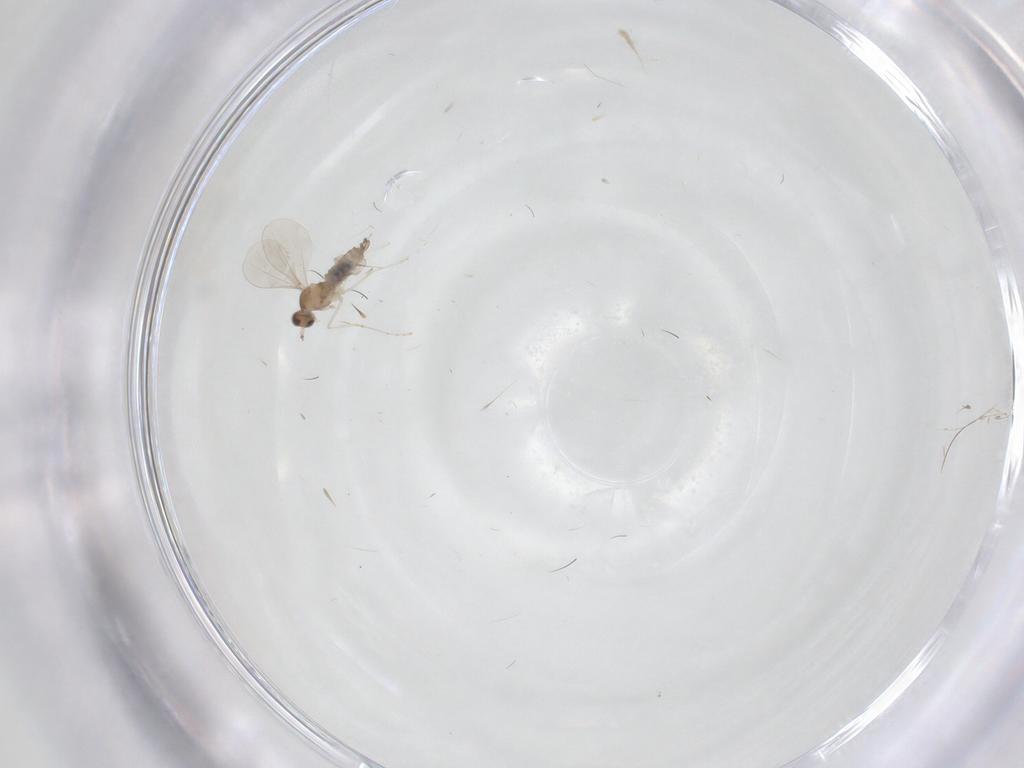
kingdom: Animalia
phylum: Arthropoda
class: Insecta
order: Diptera
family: Cecidomyiidae
